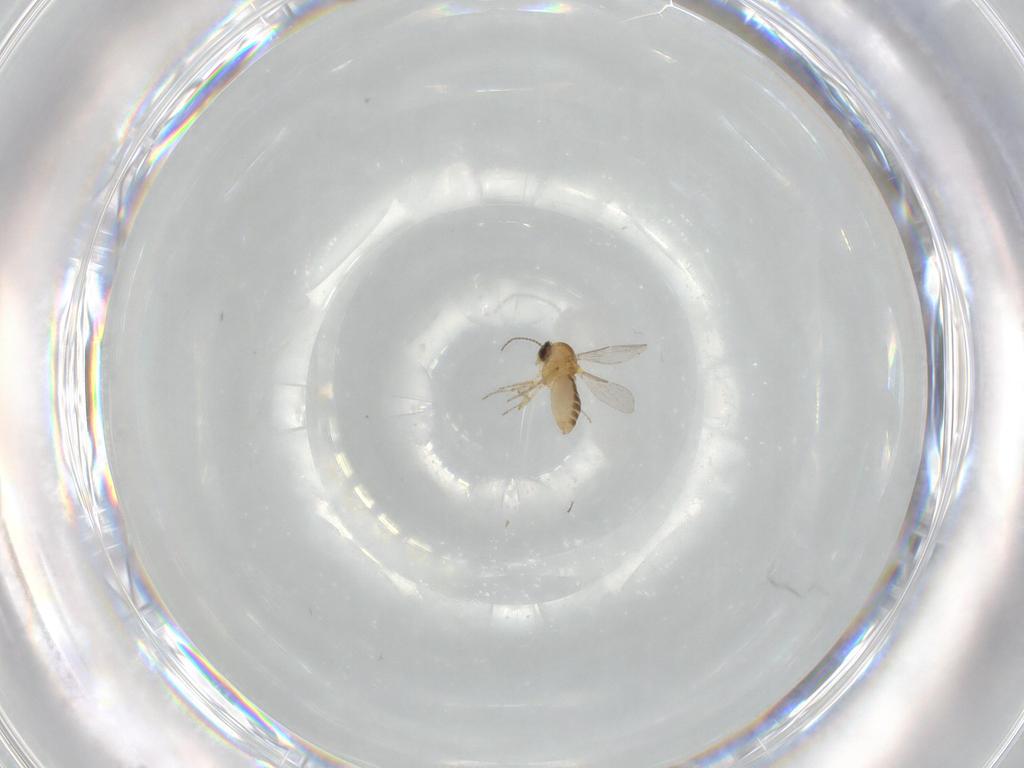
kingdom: Animalia
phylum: Arthropoda
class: Insecta
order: Diptera
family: Ceratopogonidae
